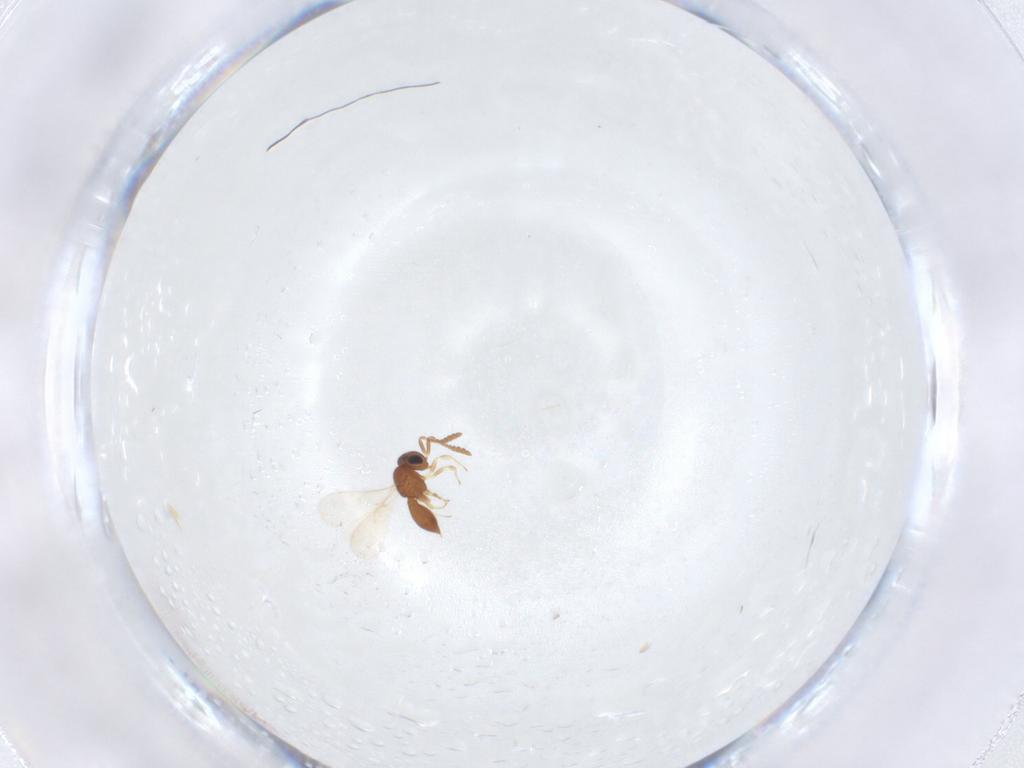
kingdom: Animalia
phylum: Arthropoda
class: Insecta
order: Hymenoptera
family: Scelionidae
